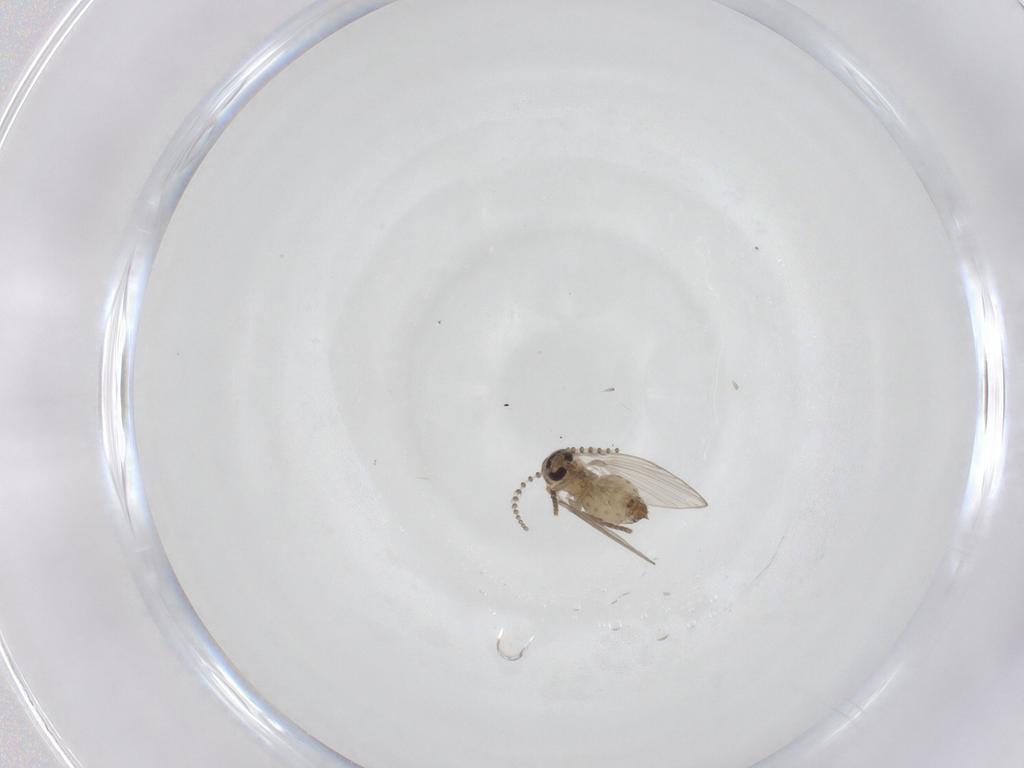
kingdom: Animalia
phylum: Arthropoda
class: Insecta
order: Diptera
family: Psychodidae
